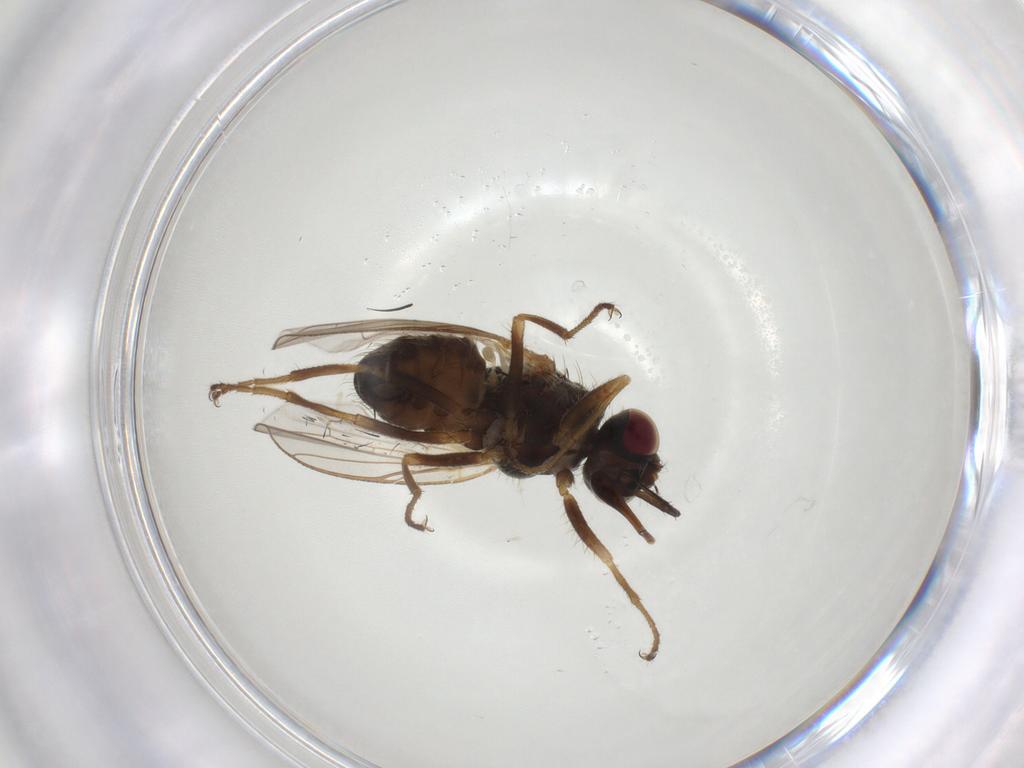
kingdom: Animalia
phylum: Arthropoda
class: Insecta
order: Diptera
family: Muscidae
